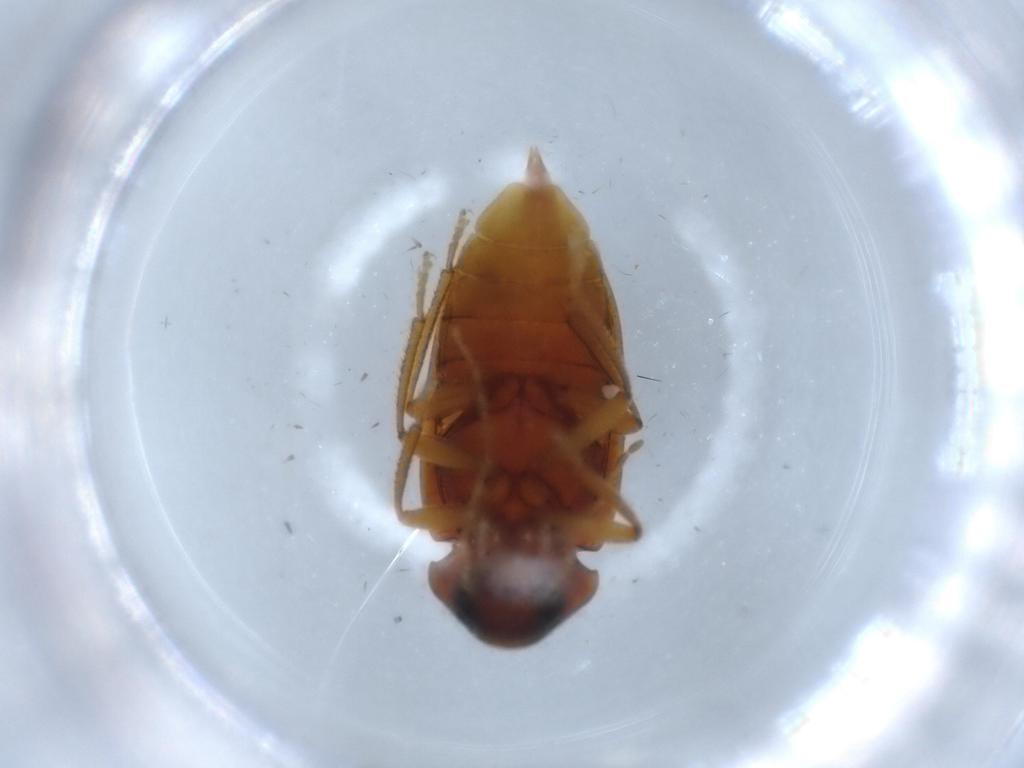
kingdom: Animalia
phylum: Arthropoda
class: Insecta
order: Coleoptera
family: Ptilodactylidae
